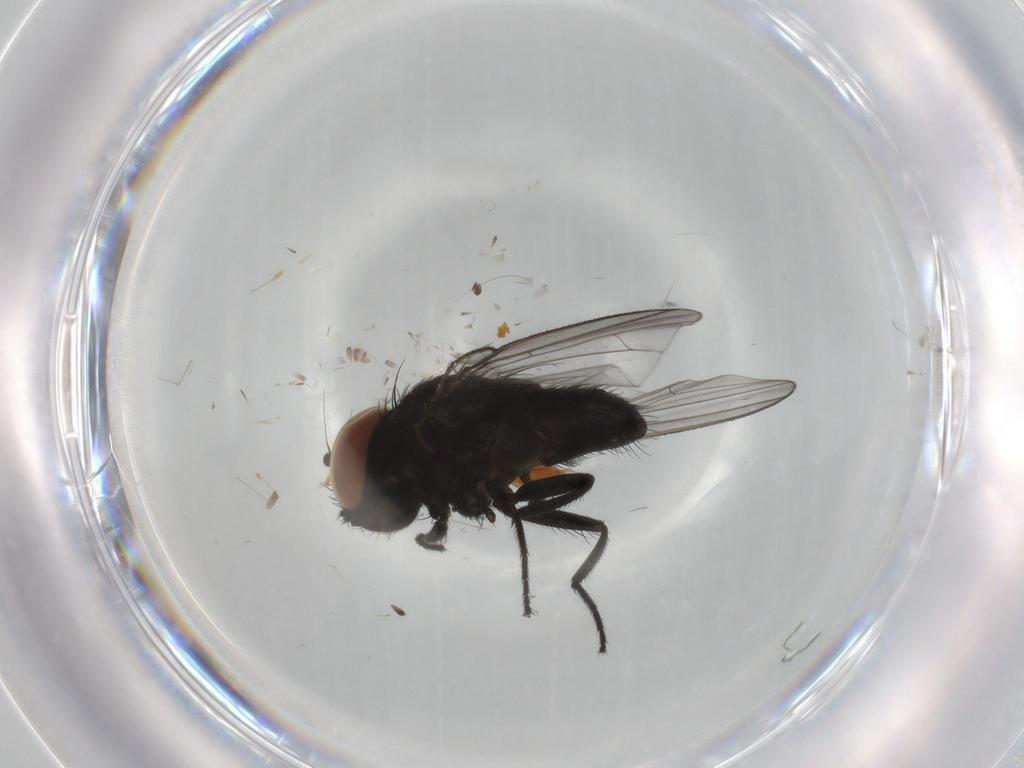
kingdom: Animalia
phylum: Arthropoda
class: Insecta
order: Diptera
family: Milichiidae
